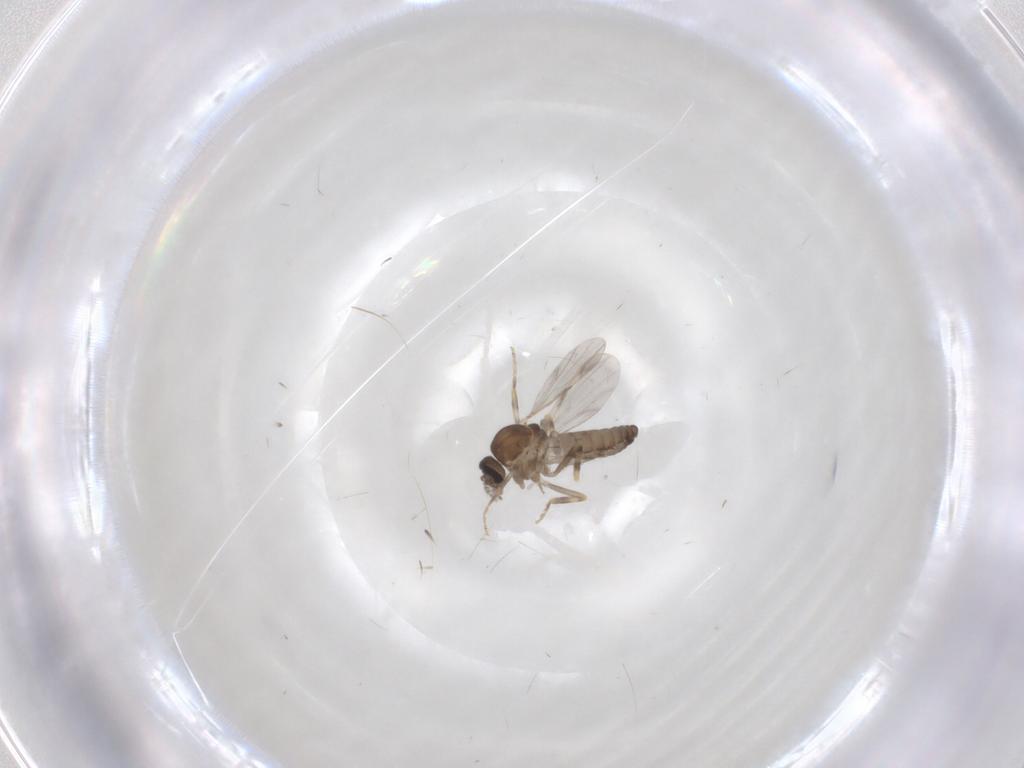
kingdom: Animalia
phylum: Arthropoda
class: Insecta
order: Diptera
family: Ceratopogonidae
